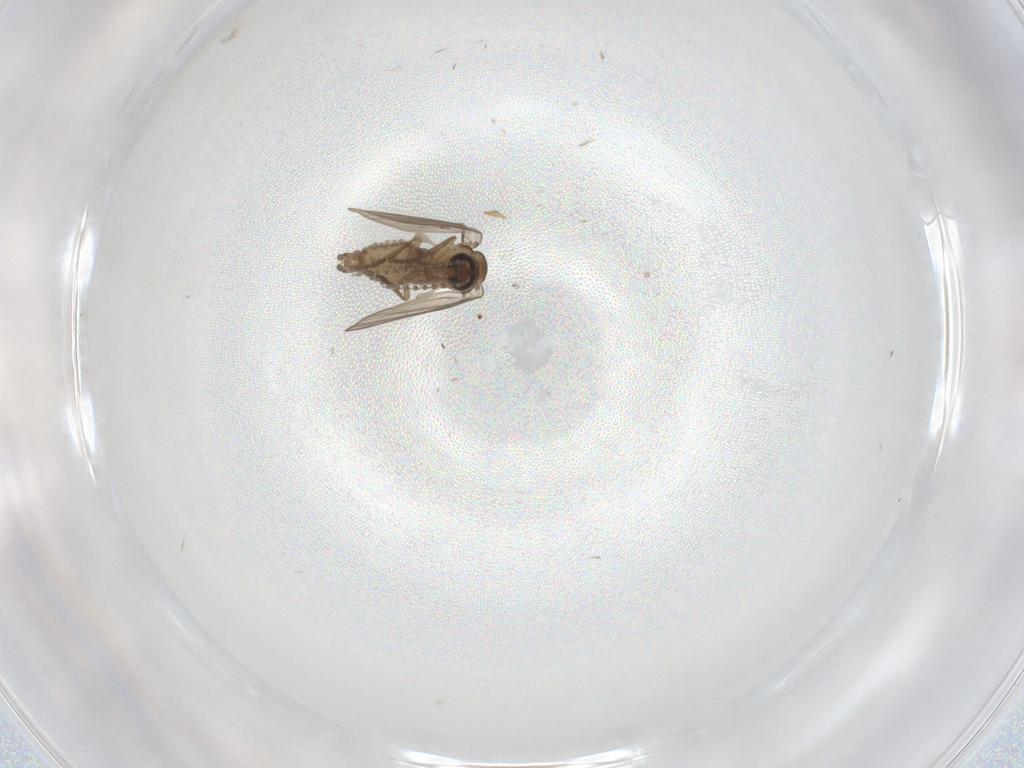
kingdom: Animalia
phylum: Arthropoda
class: Insecta
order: Diptera
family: Psychodidae
